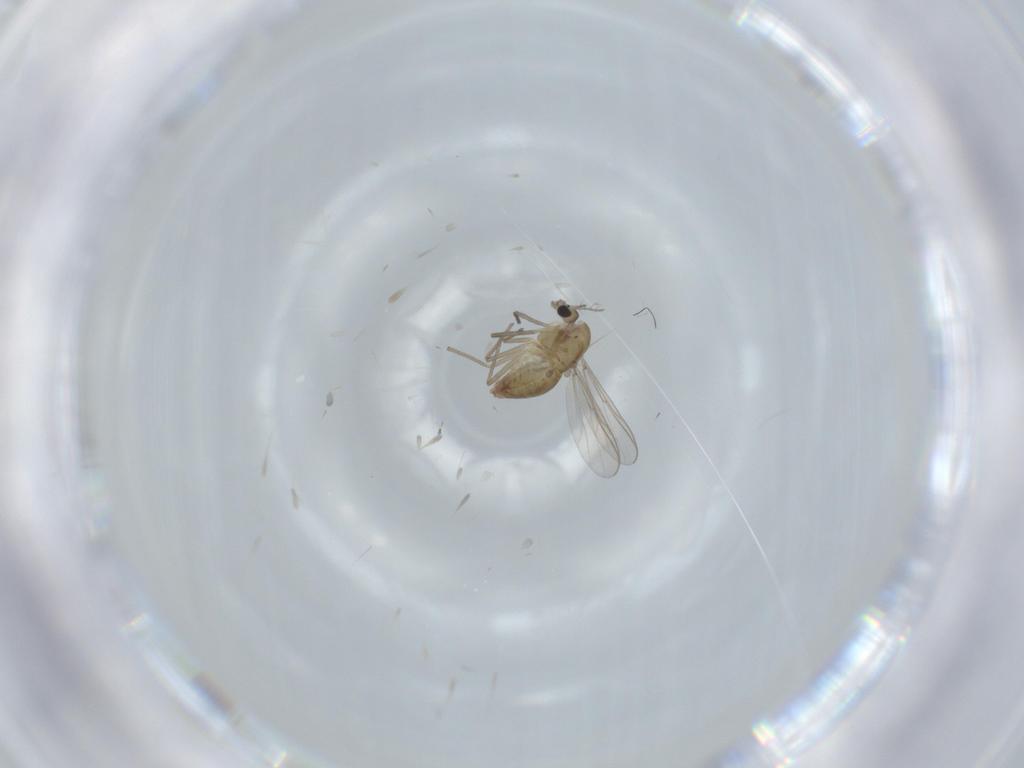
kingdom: Animalia
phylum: Arthropoda
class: Insecta
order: Diptera
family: Chironomidae
